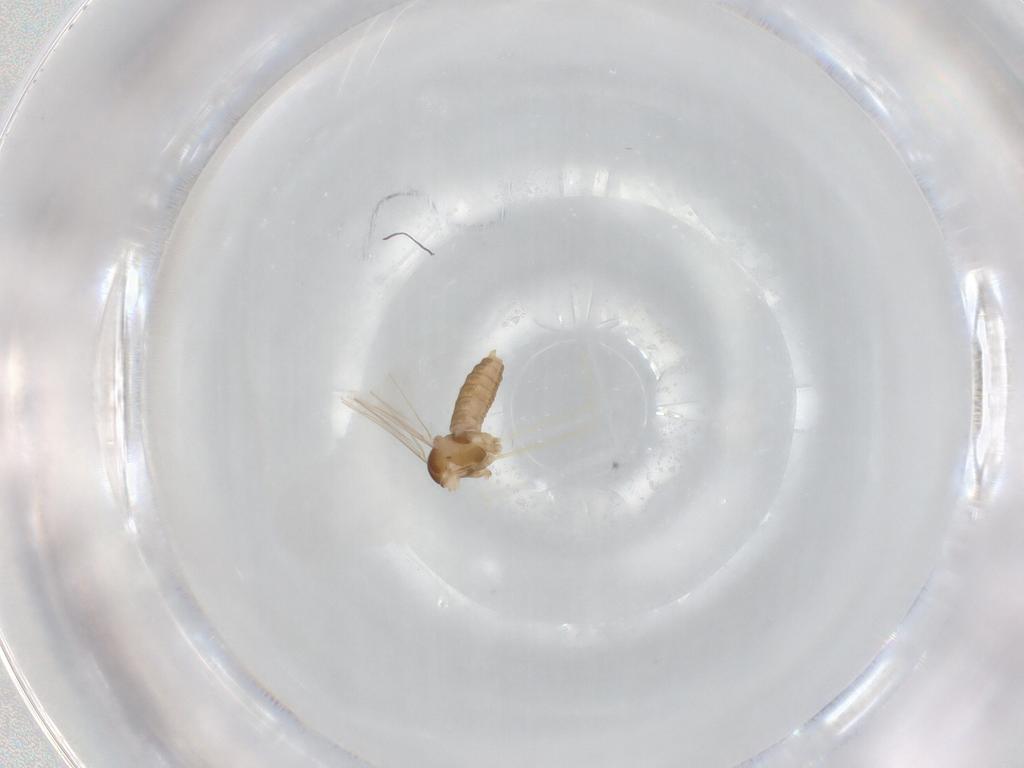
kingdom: Animalia
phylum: Arthropoda
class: Insecta
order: Diptera
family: Cecidomyiidae
